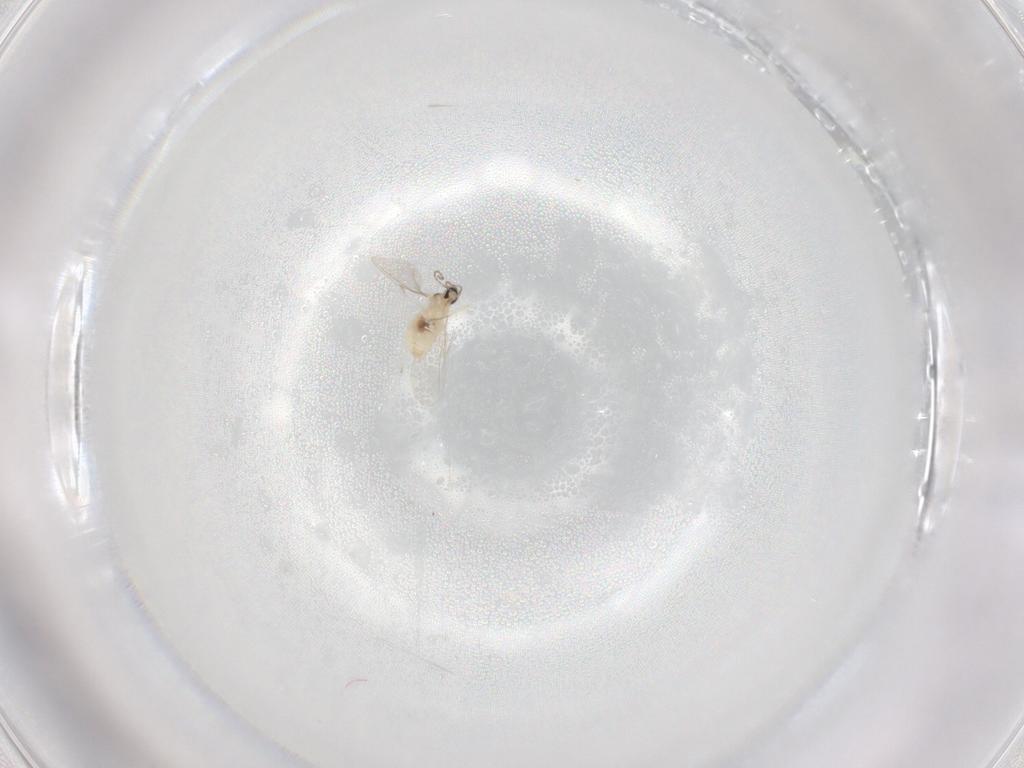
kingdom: Animalia
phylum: Arthropoda
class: Insecta
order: Diptera
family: Cecidomyiidae
